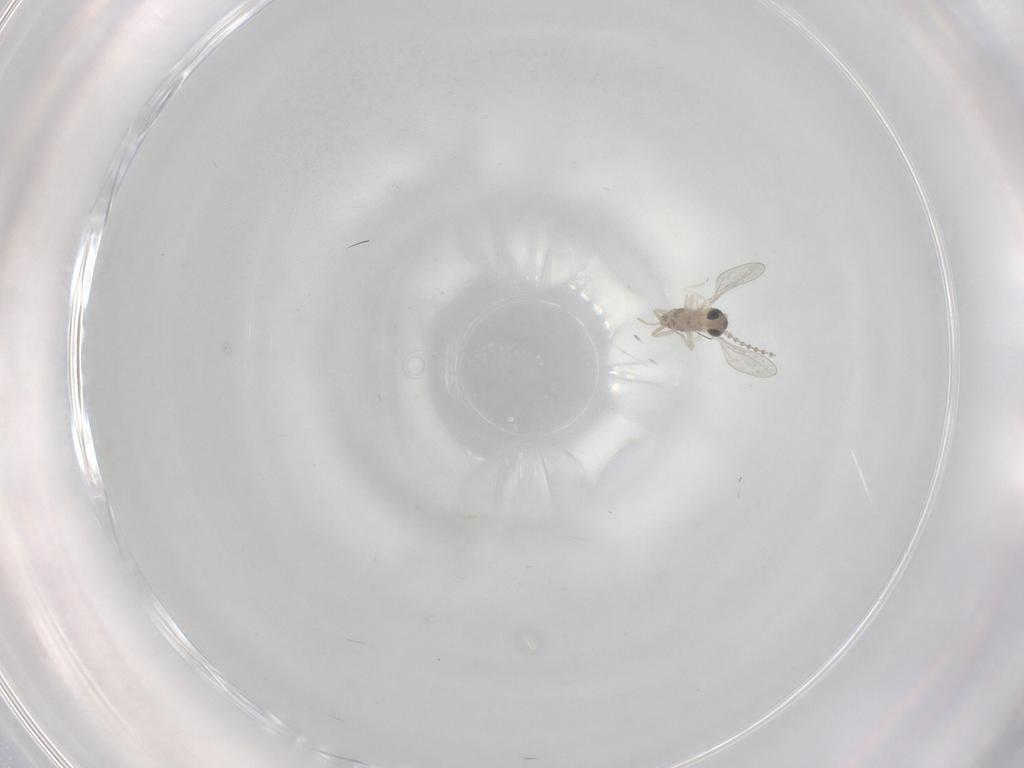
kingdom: Animalia
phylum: Arthropoda
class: Insecta
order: Diptera
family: Cecidomyiidae
